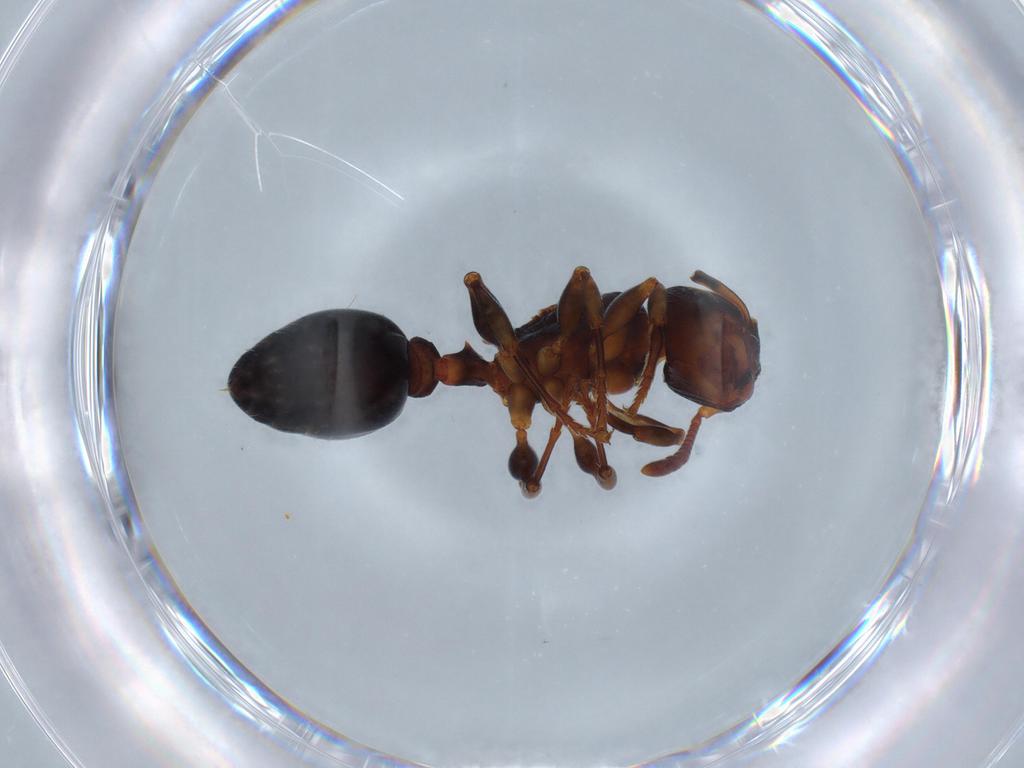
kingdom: Animalia
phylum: Arthropoda
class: Insecta
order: Hymenoptera
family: Formicidae
